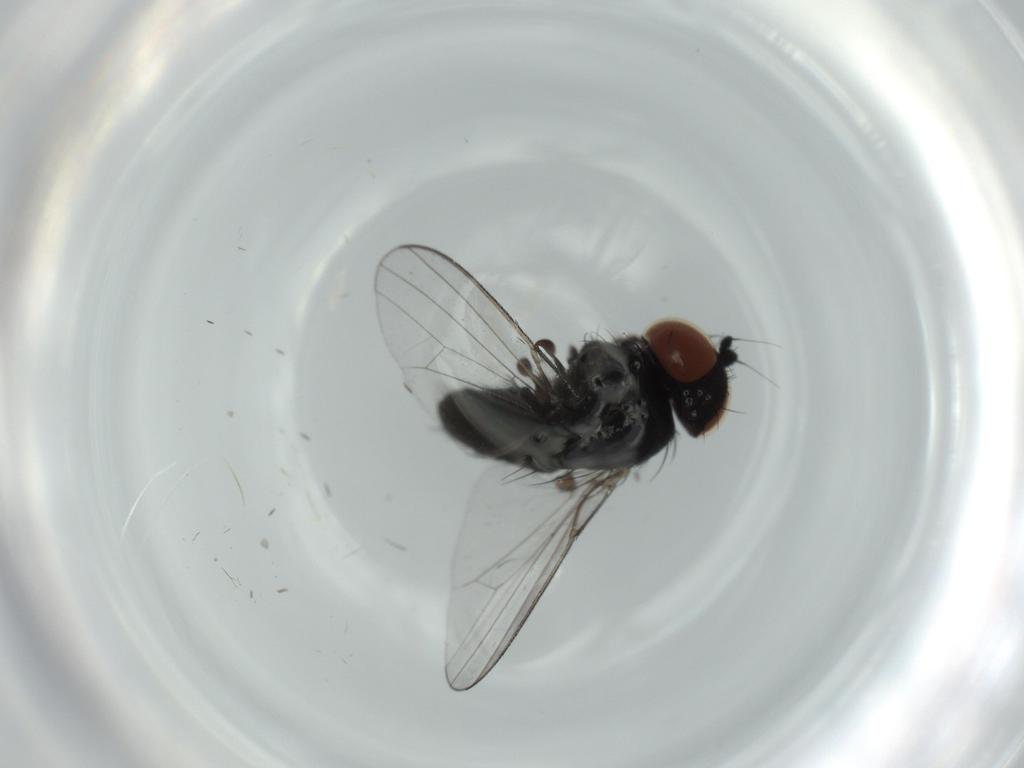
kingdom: Animalia
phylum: Arthropoda
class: Insecta
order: Diptera
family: Milichiidae
